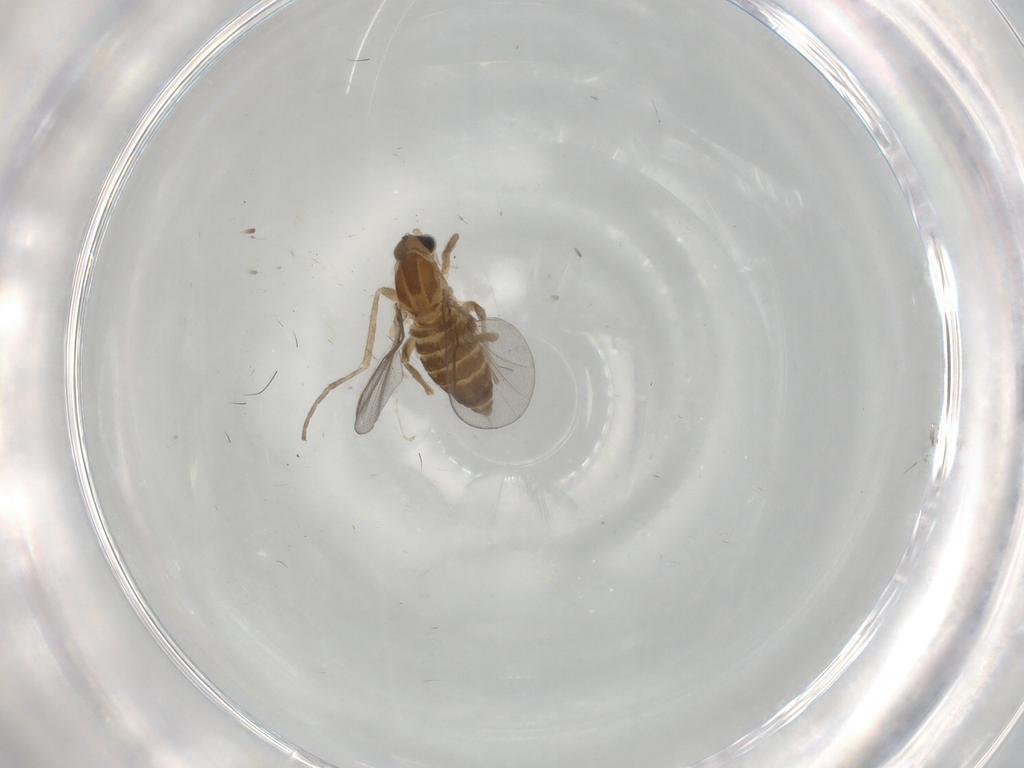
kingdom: Animalia
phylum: Arthropoda
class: Insecta
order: Diptera
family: Cecidomyiidae
